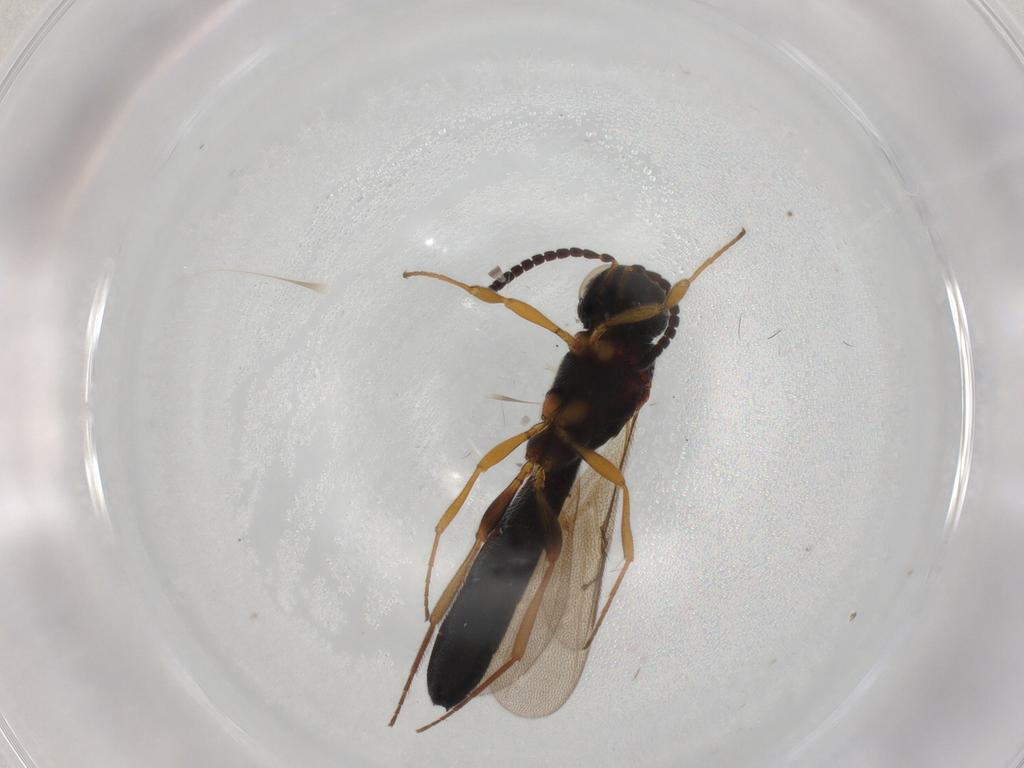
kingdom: Animalia
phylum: Arthropoda
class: Insecta
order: Hymenoptera
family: Scelionidae
